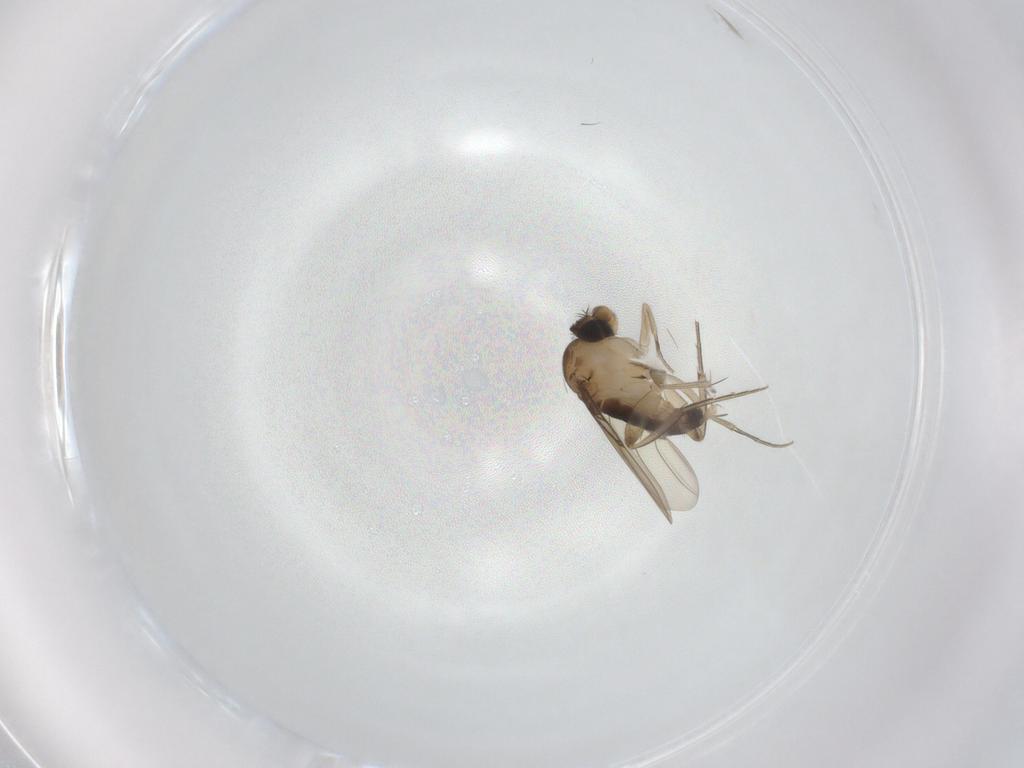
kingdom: Animalia
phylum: Arthropoda
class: Insecta
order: Diptera
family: Phoridae
